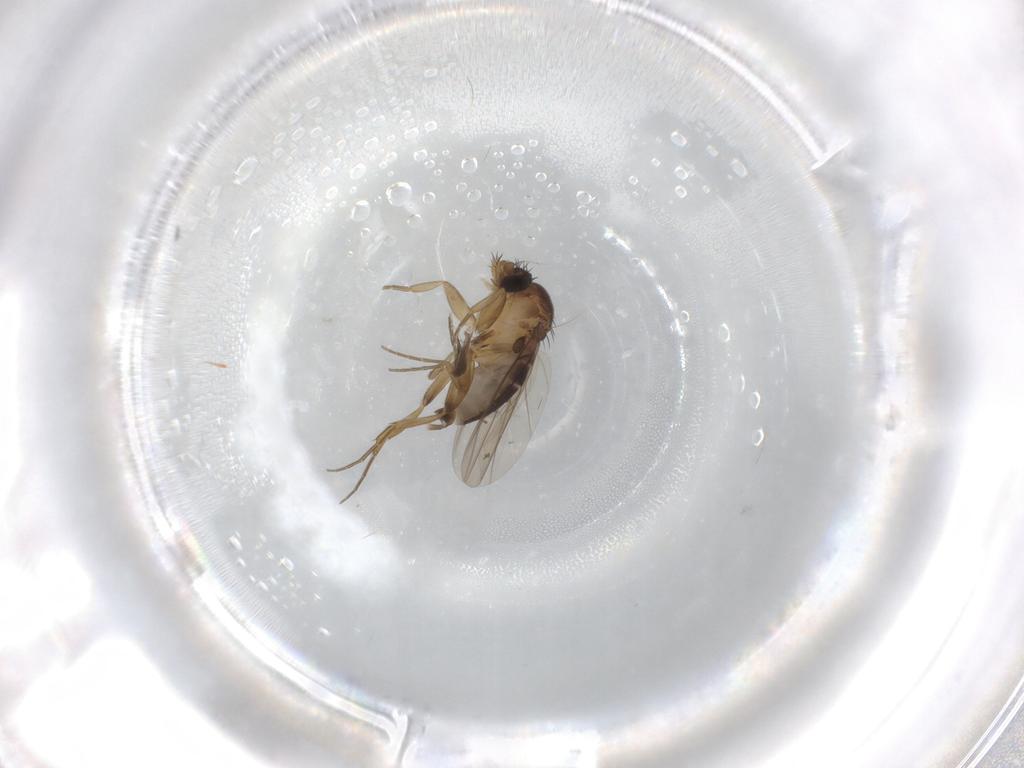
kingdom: Animalia
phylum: Arthropoda
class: Insecta
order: Diptera
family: Phoridae
